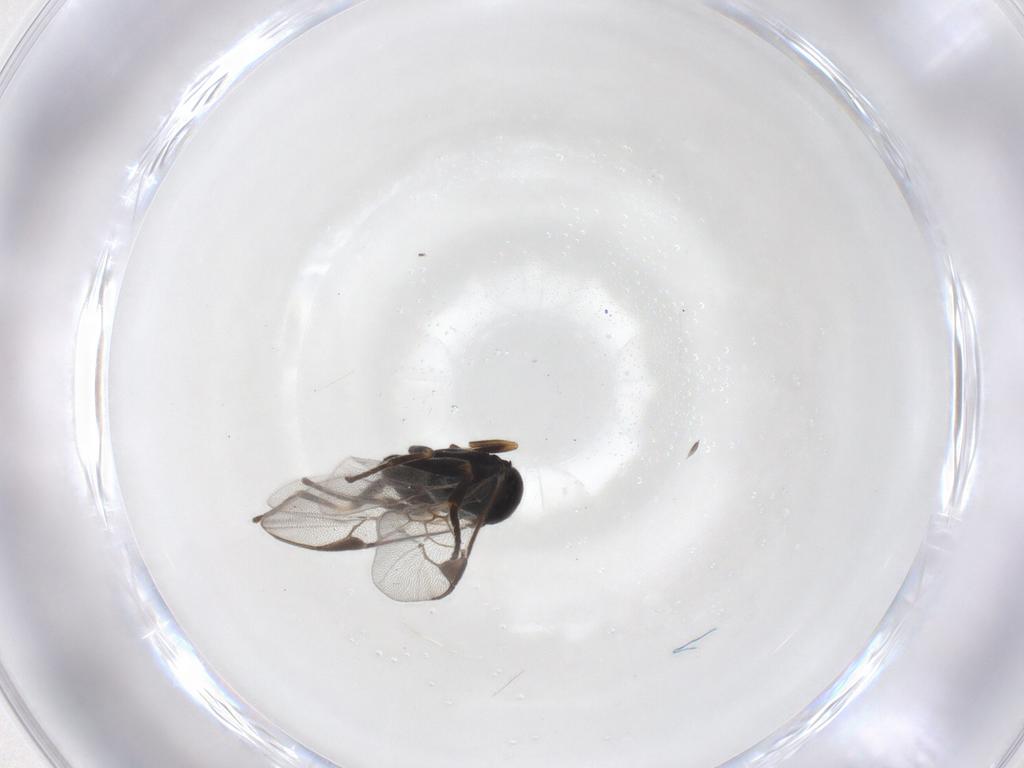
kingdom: Animalia
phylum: Arthropoda
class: Insecta
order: Hymenoptera
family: Braconidae
